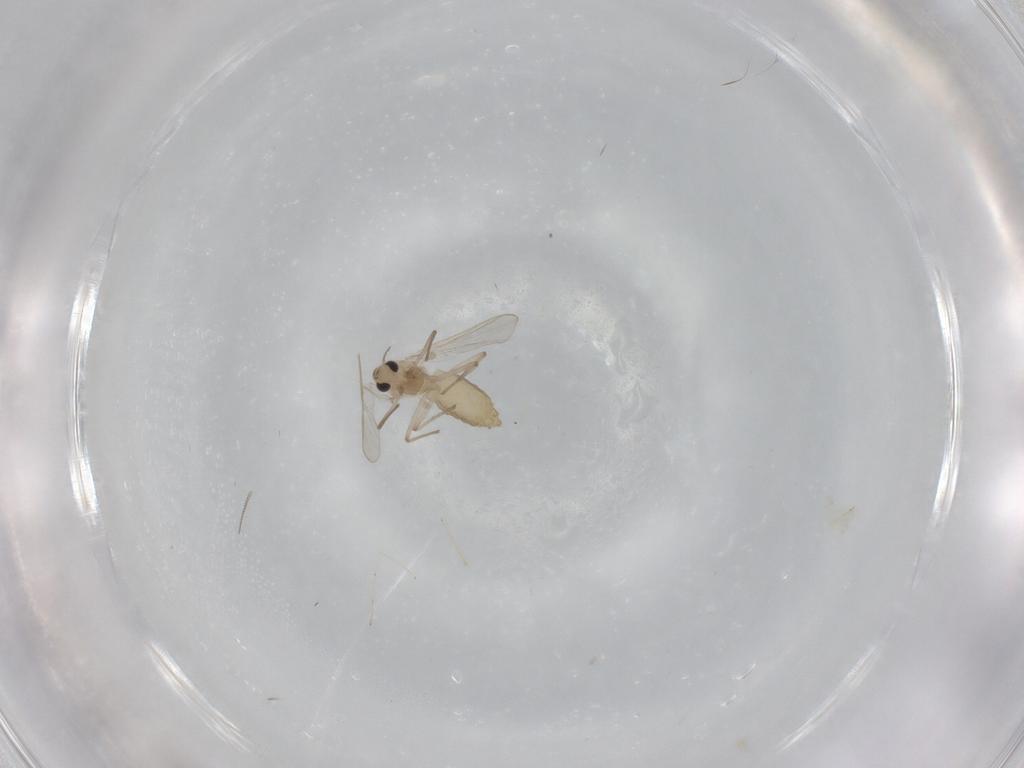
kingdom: Animalia
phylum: Arthropoda
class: Insecta
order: Diptera
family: Chironomidae
